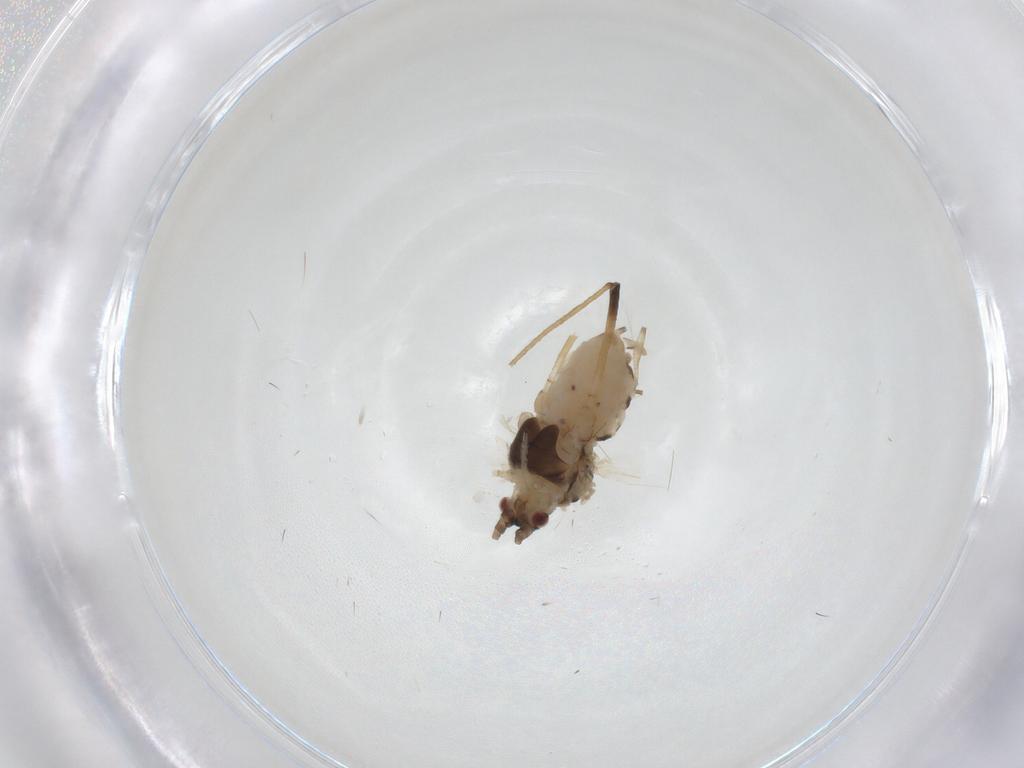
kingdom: Animalia
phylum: Arthropoda
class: Insecta
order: Hemiptera
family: Aphididae
